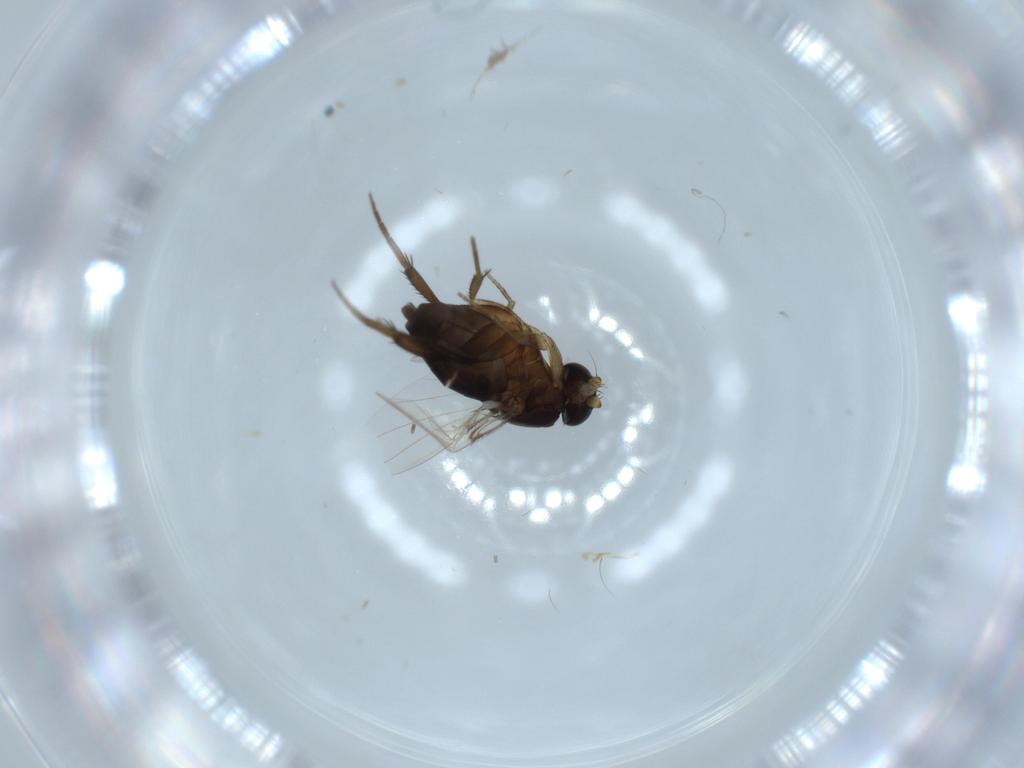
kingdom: Animalia
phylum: Arthropoda
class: Insecta
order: Diptera
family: Phoridae
